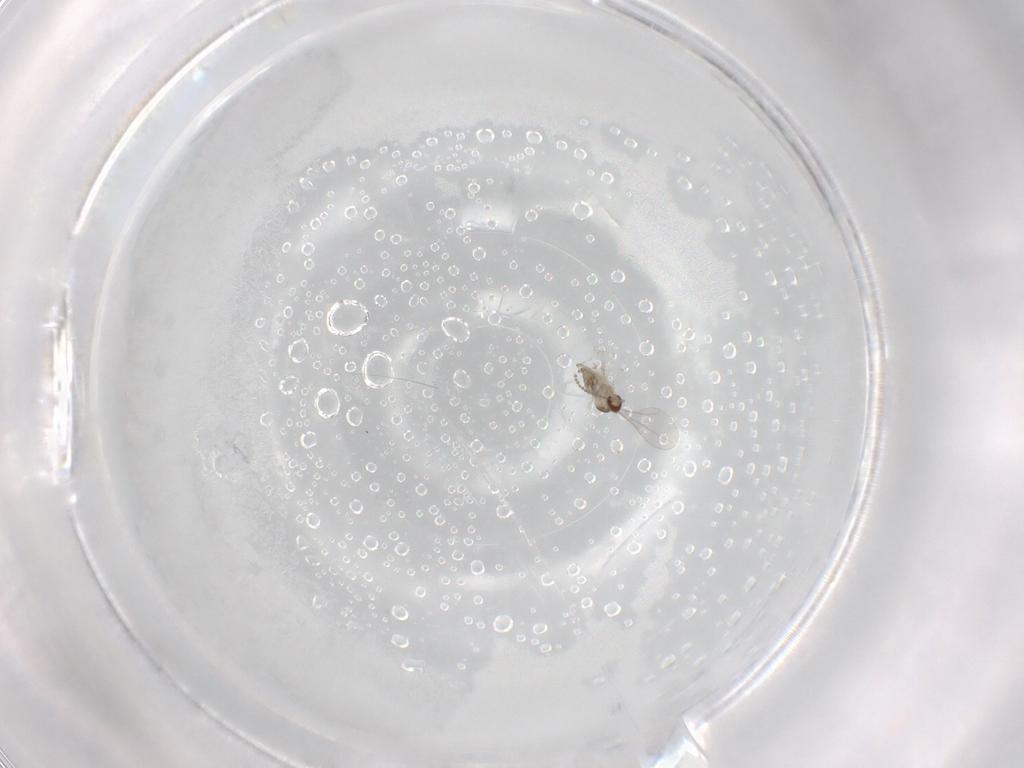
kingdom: Animalia
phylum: Arthropoda
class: Insecta
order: Diptera
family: Cecidomyiidae
